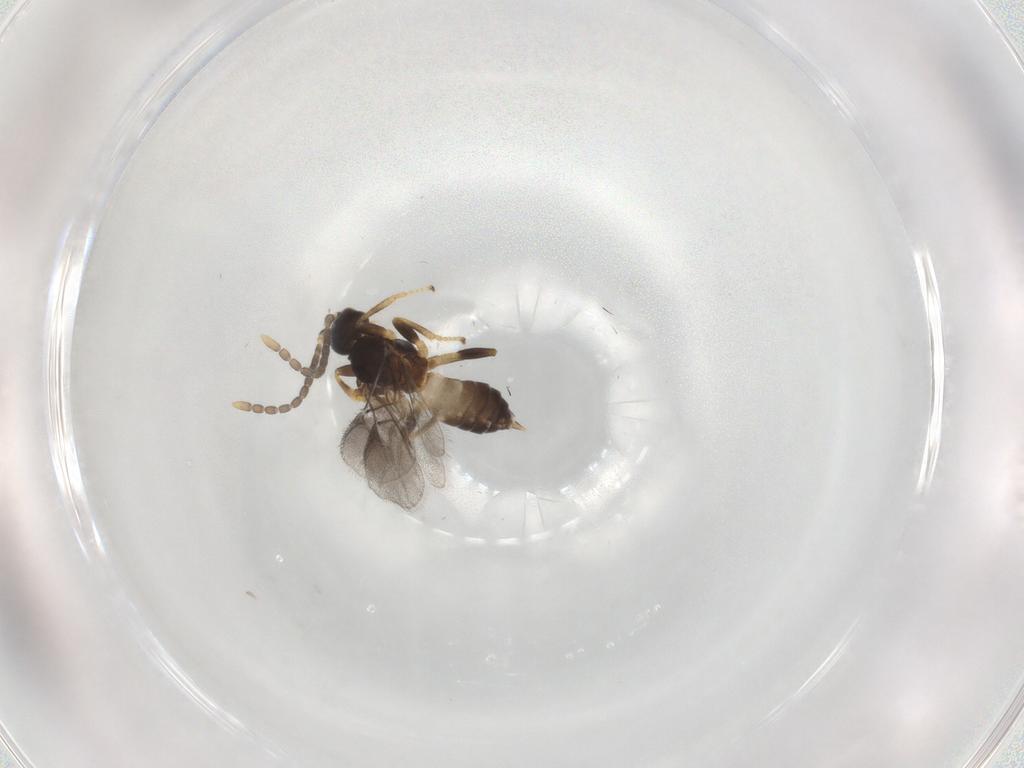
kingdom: Animalia
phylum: Arthropoda
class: Insecta
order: Hymenoptera
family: Braconidae
